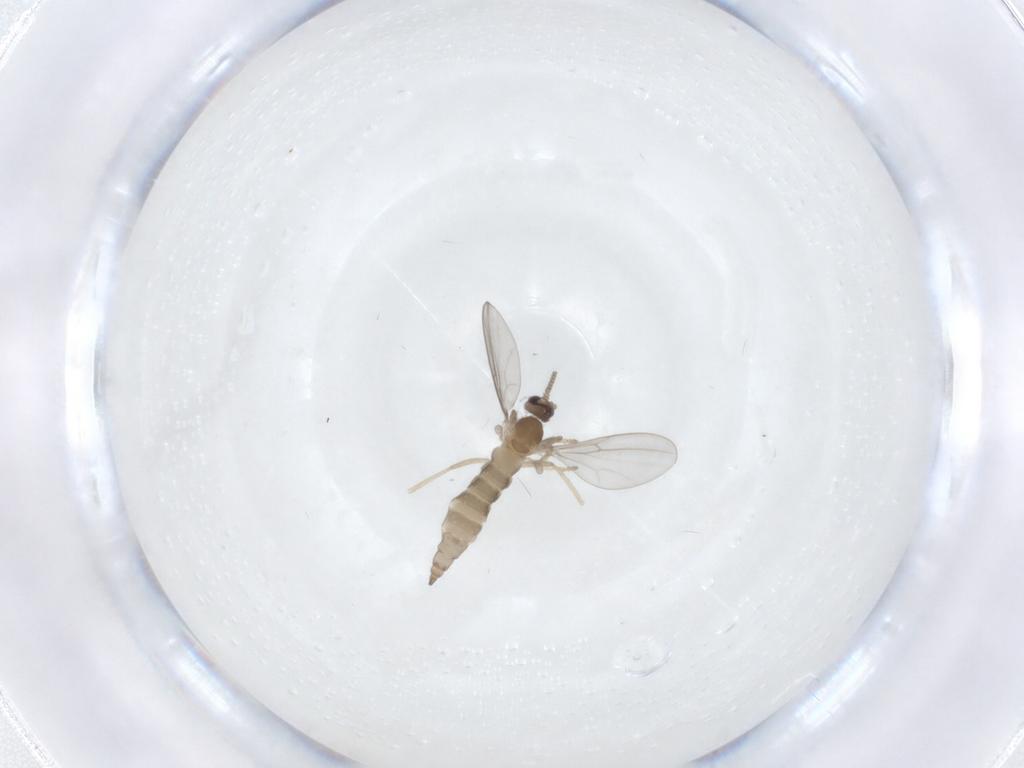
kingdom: Animalia
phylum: Arthropoda
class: Insecta
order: Diptera
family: Cecidomyiidae
